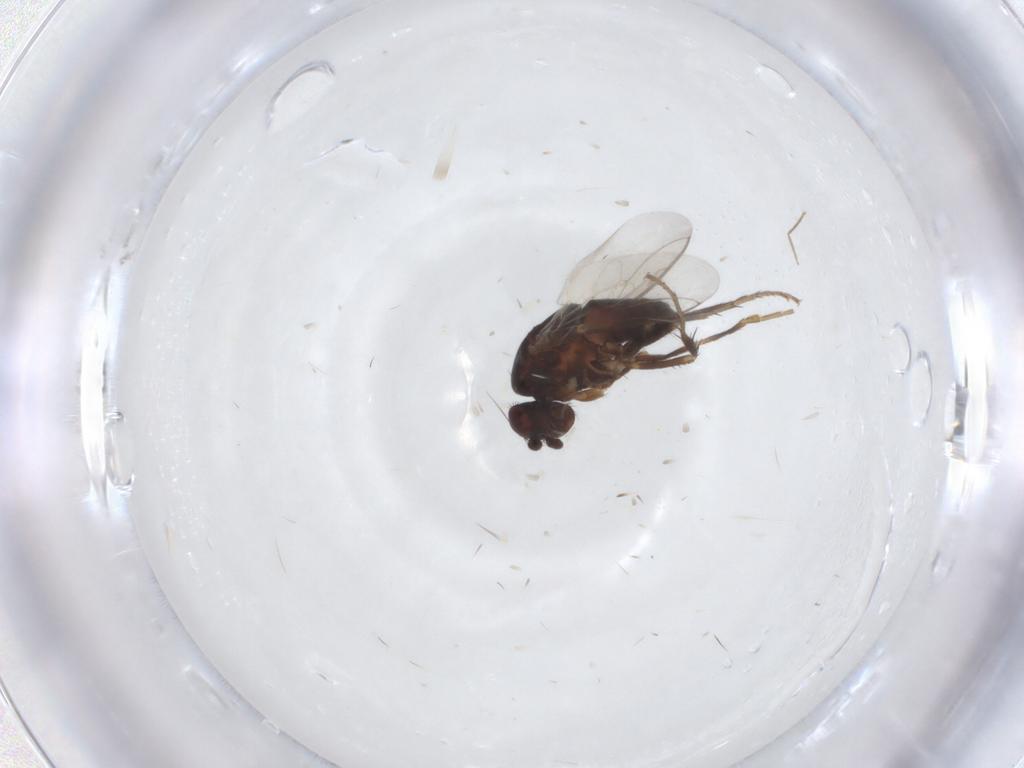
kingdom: Animalia
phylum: Arthropoda
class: Insecta
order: Diptera
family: Sphaeroceridae
